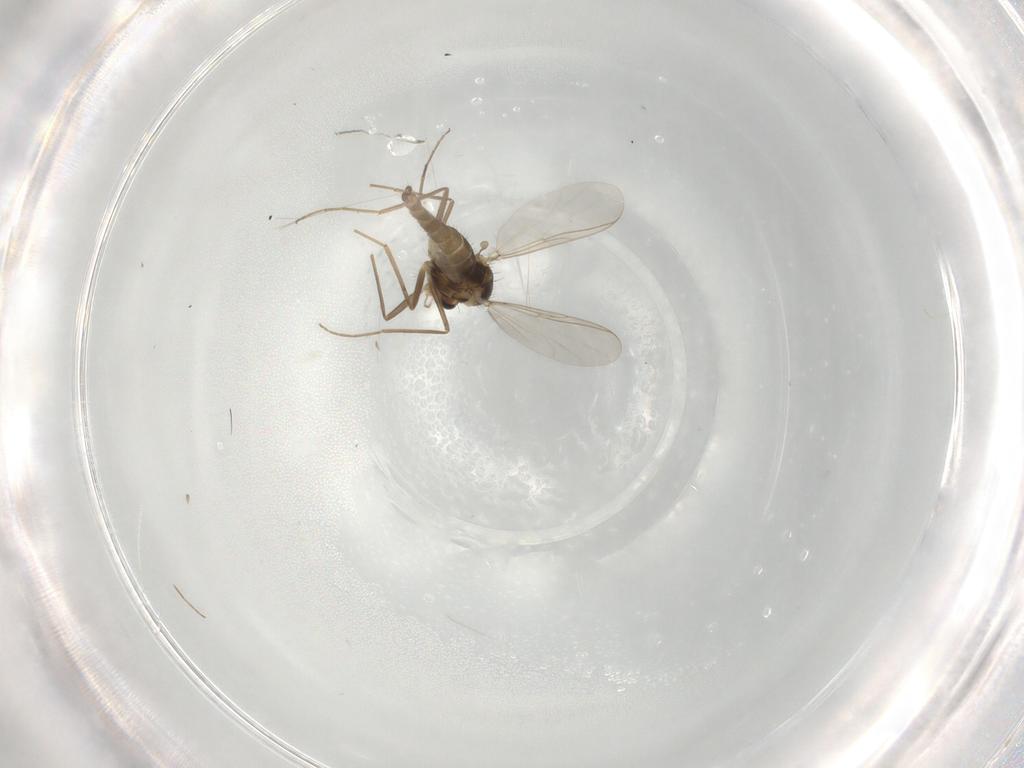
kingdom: Animalia
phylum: Arthropoda
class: Insecta
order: Diptera
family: Chironomidae
